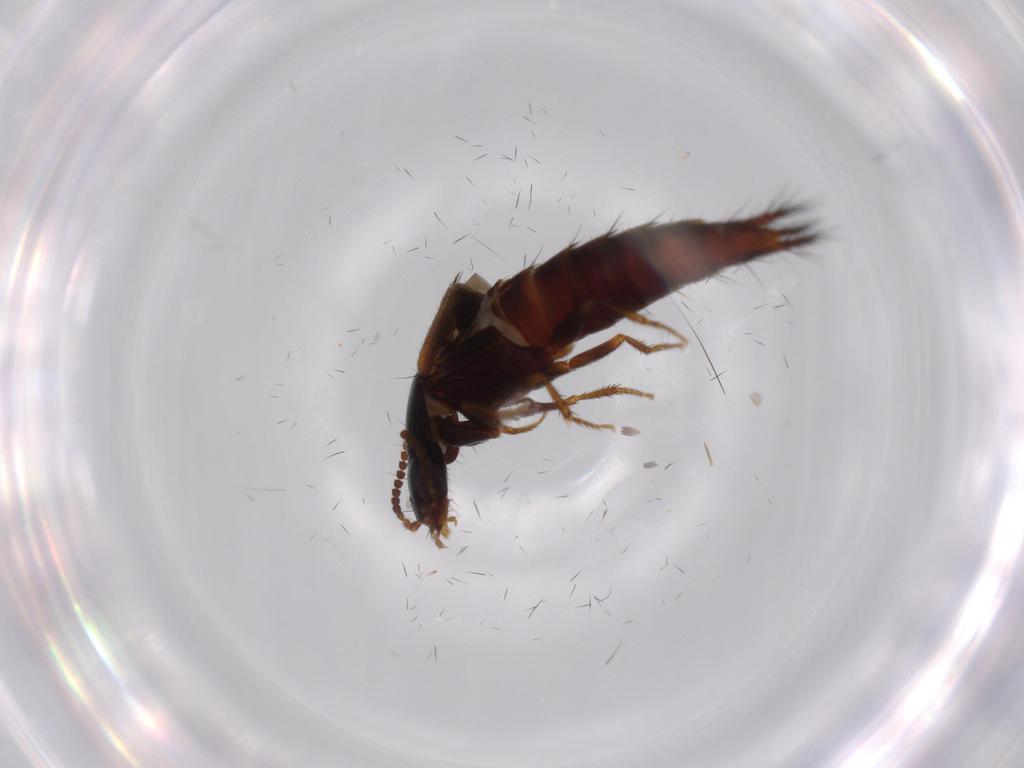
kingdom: Animalia
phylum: Arthropoda
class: Insecta
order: Coleoptera
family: Staphylinidae
